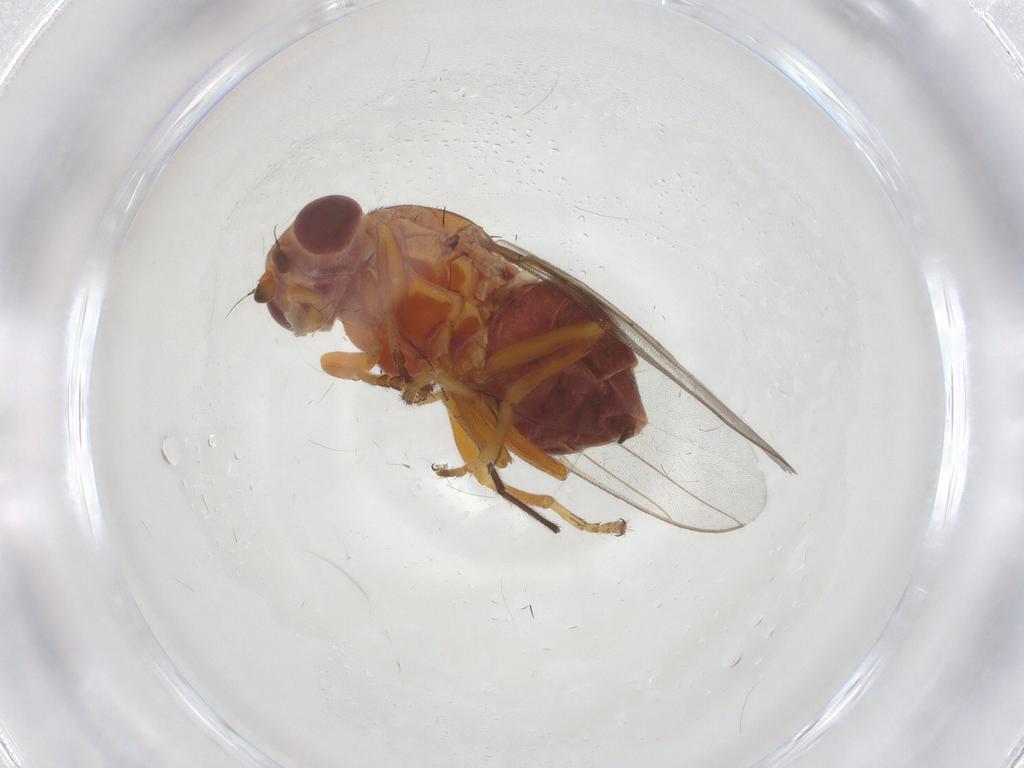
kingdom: Animalia
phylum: Arthropoda
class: Insecta
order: Diptera
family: Chloropidae
